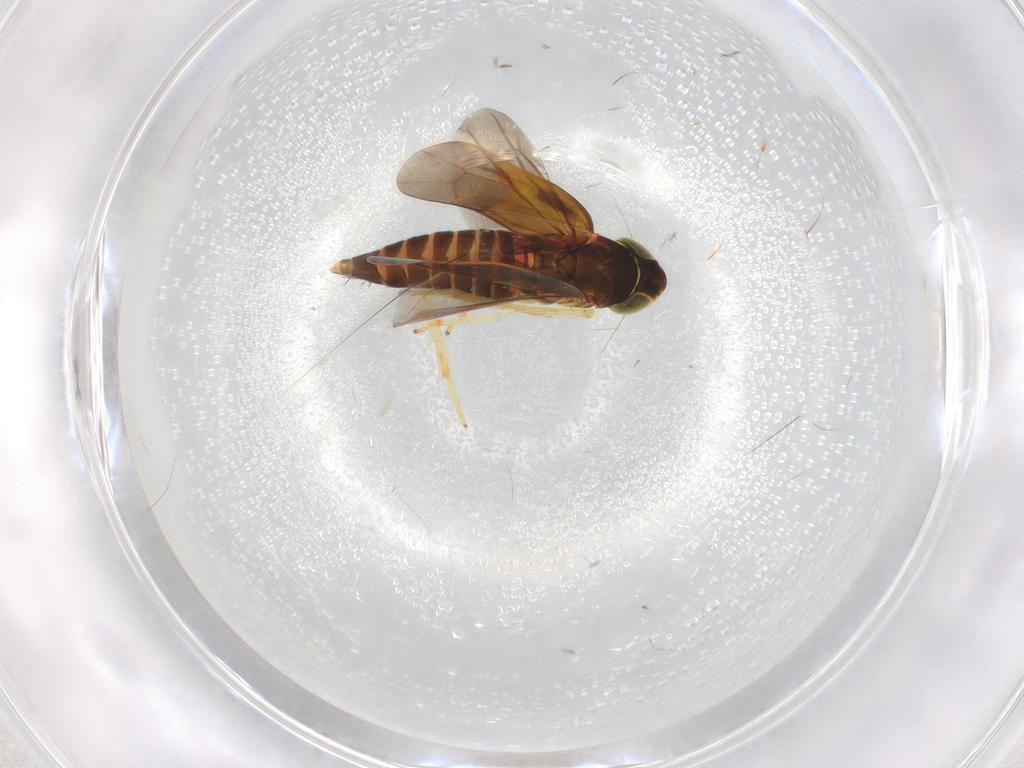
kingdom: Animalia
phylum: Arthropoda
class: Insecta
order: Hemiptera
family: Cicadellidae
